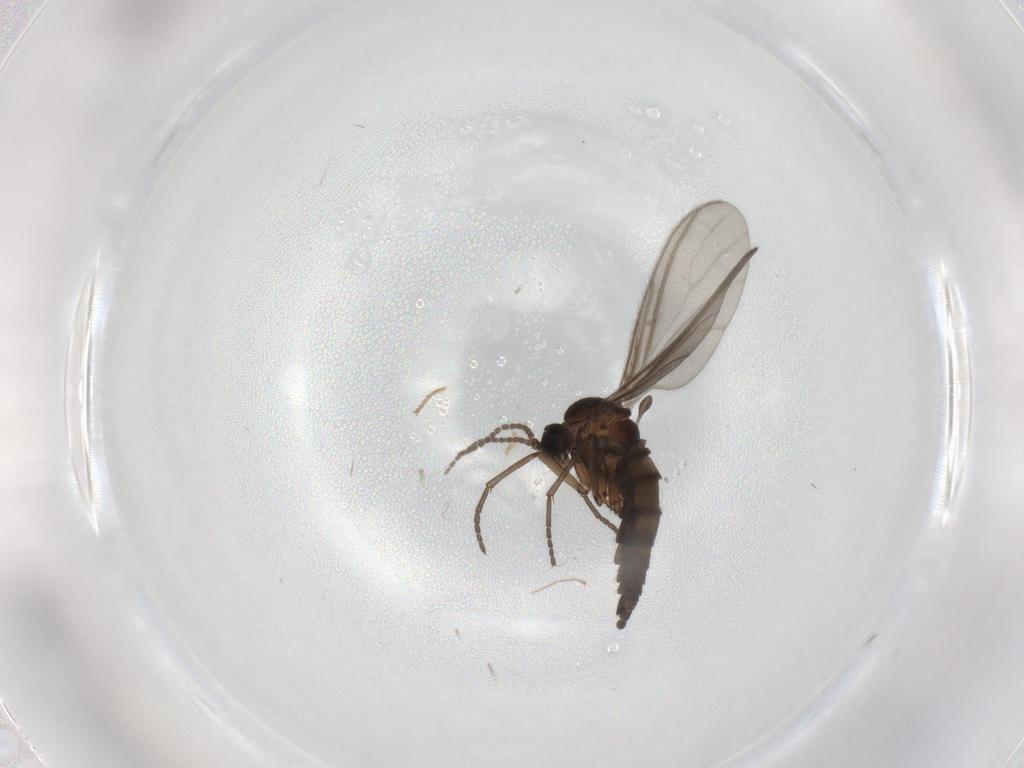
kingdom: Animalia
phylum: Arthropoda
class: Insecta
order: Diptera
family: Sciaridae
